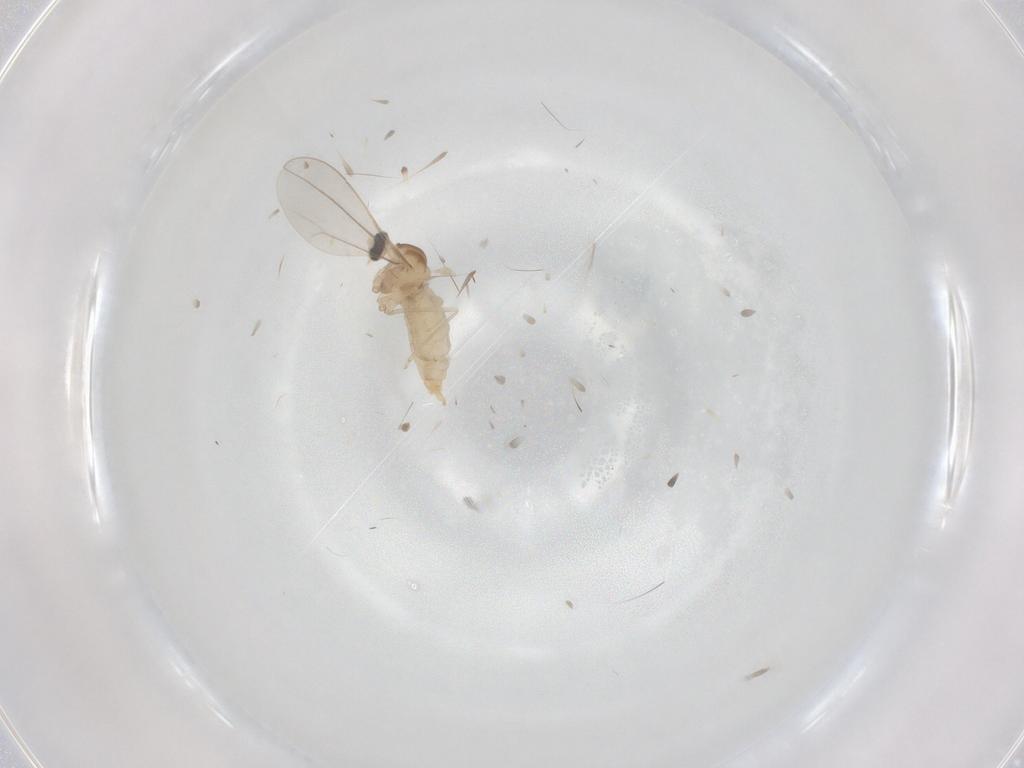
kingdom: Animalia
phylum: Arthropoda
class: Insecta
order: Diptera
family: Cecidomyiidae
